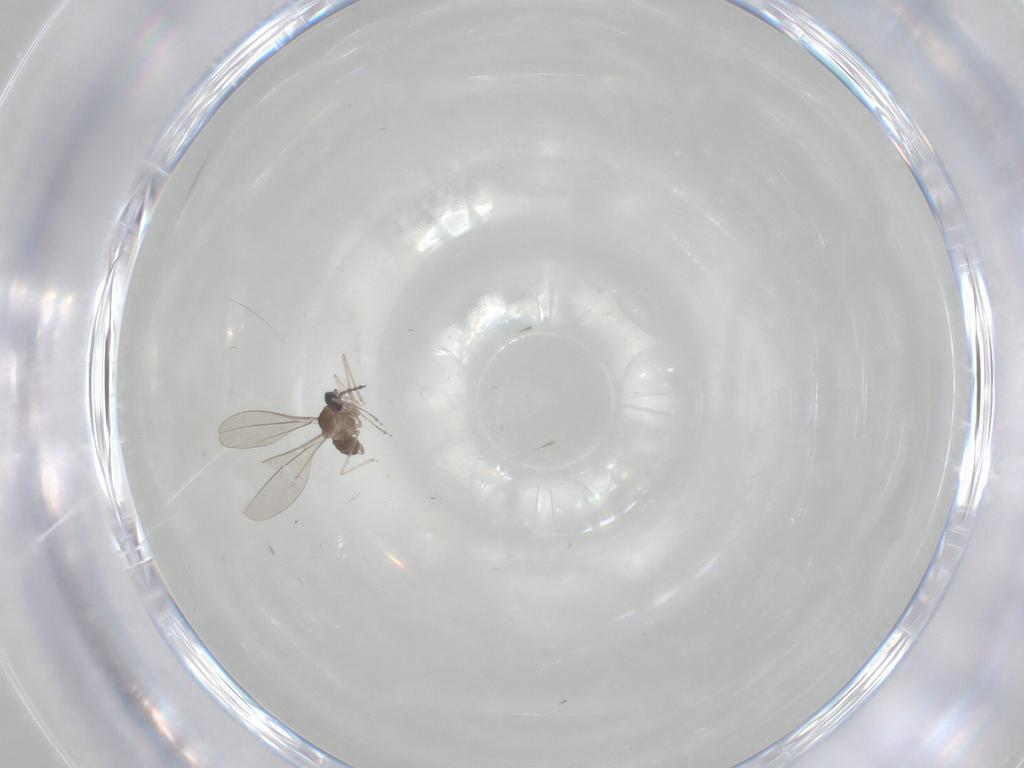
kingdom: Animalia
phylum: Arthropoda
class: Insecta
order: Diptera
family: Cecidomyiidae
